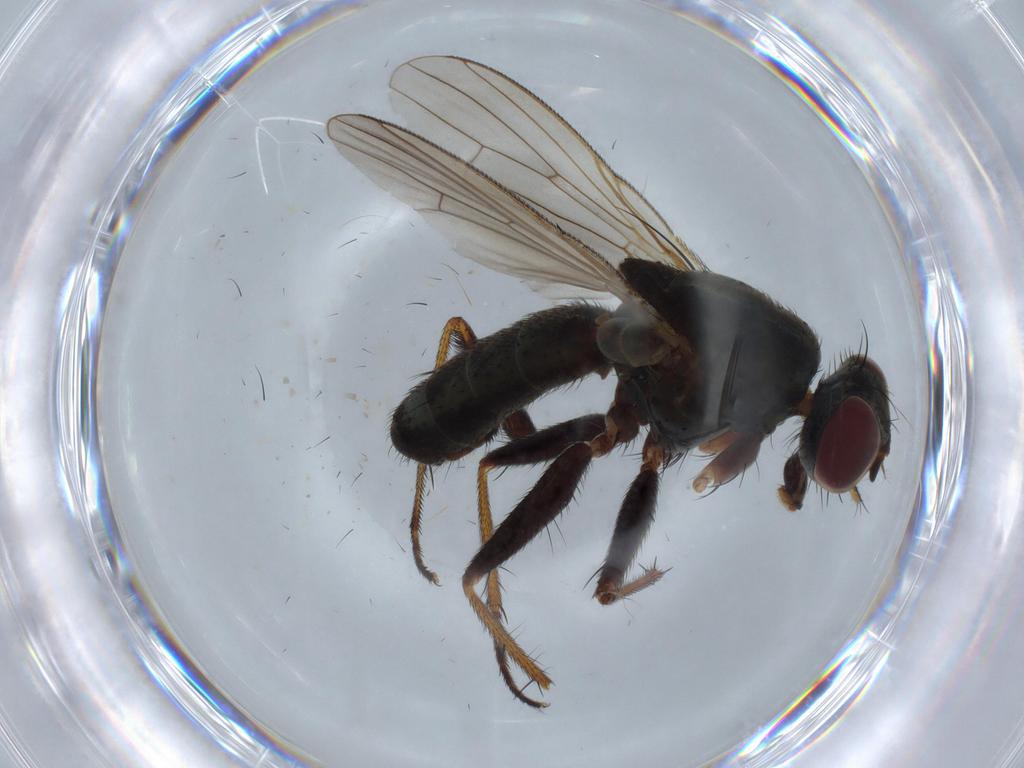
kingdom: Animalia
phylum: Arthropoda
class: Insecta
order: Diptera
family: Muscidae
